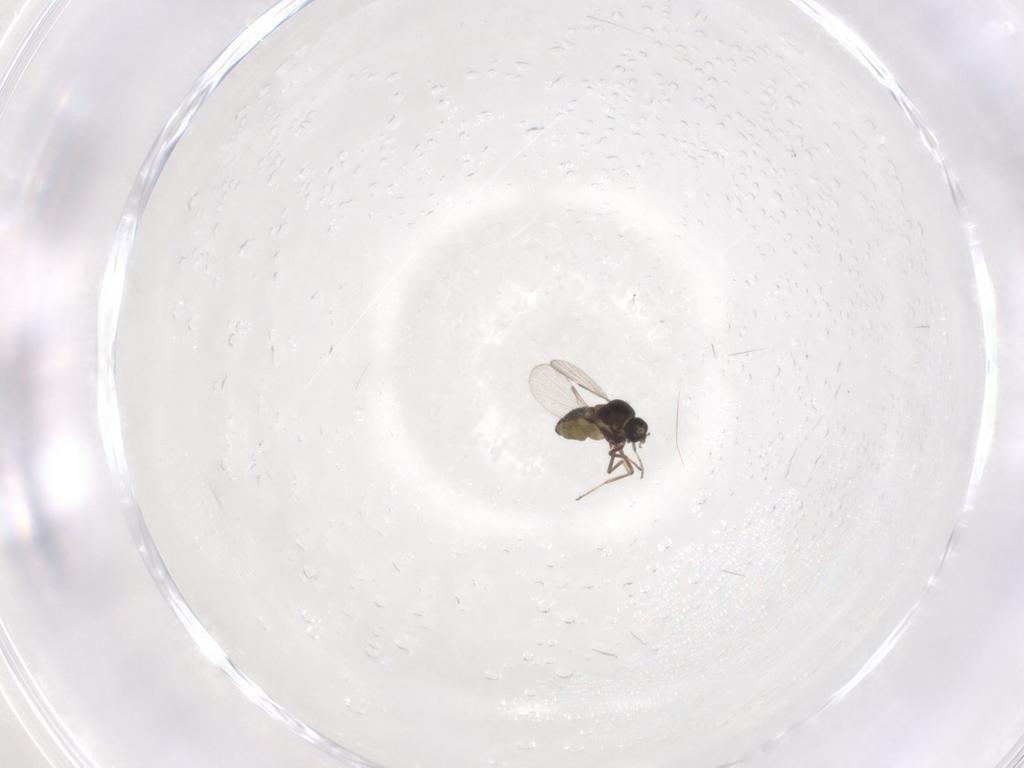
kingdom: Animalia
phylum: Arthropoda
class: Insecta
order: Diptera
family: Ceratopogonidae
